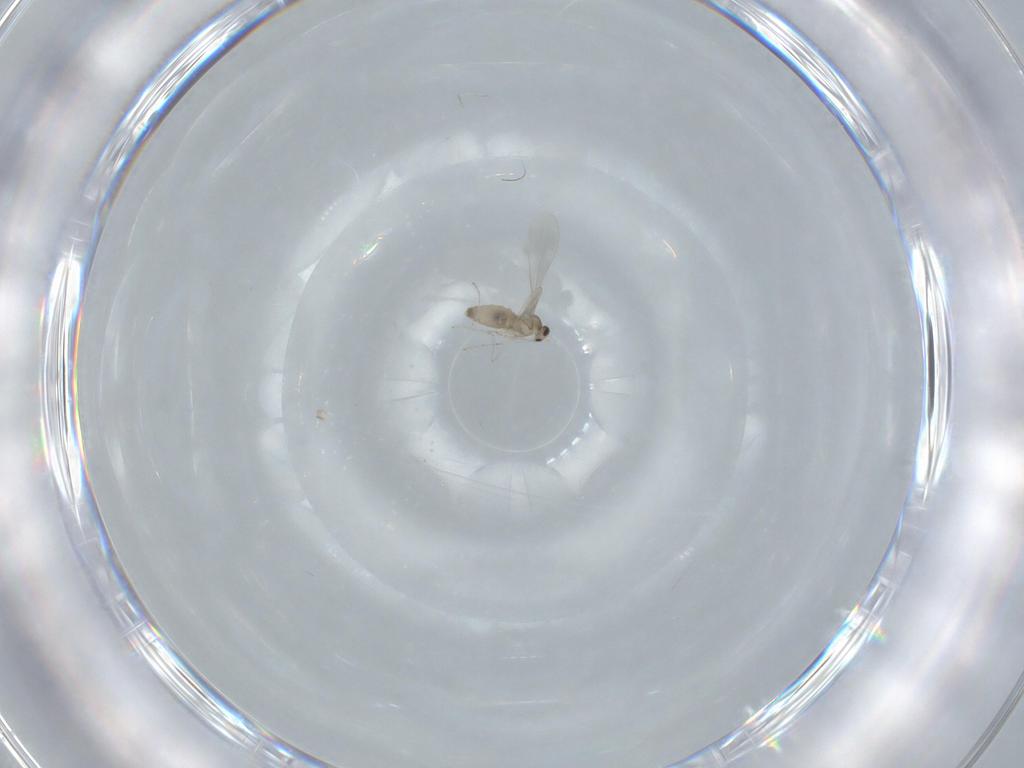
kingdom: Animalia
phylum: Arthropoda
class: Insecta
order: Diptera
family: Cecidomyiidae
